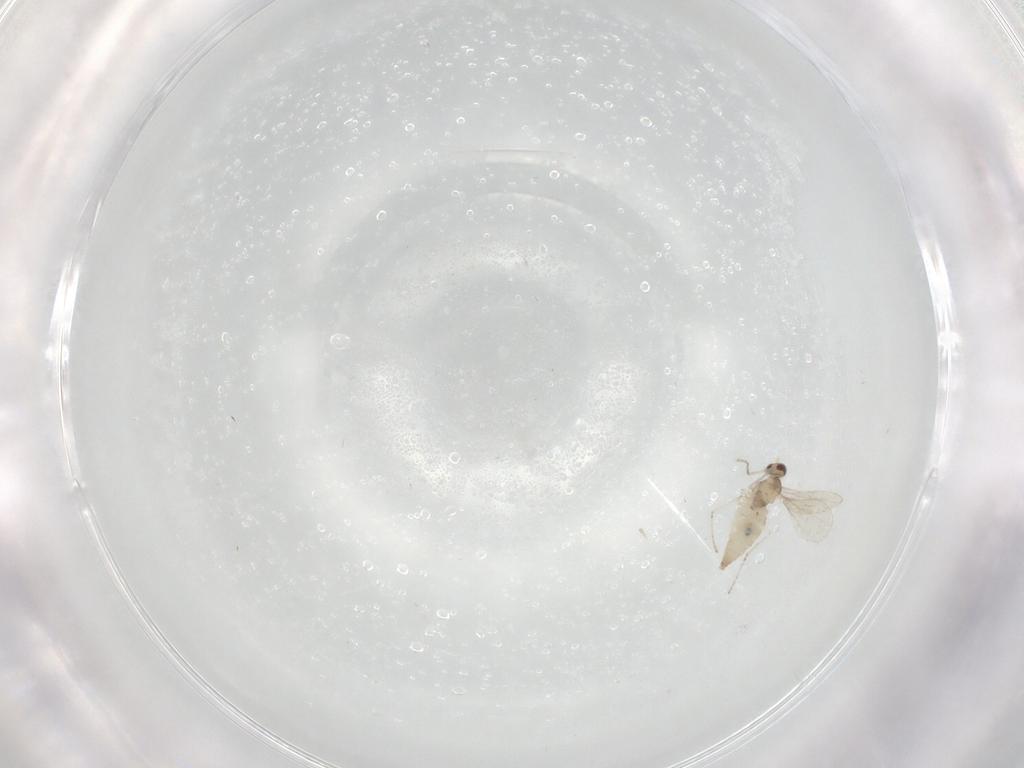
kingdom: Animalia
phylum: Arthropoda
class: Insecta
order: Diptera
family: Cecidomyiidae
